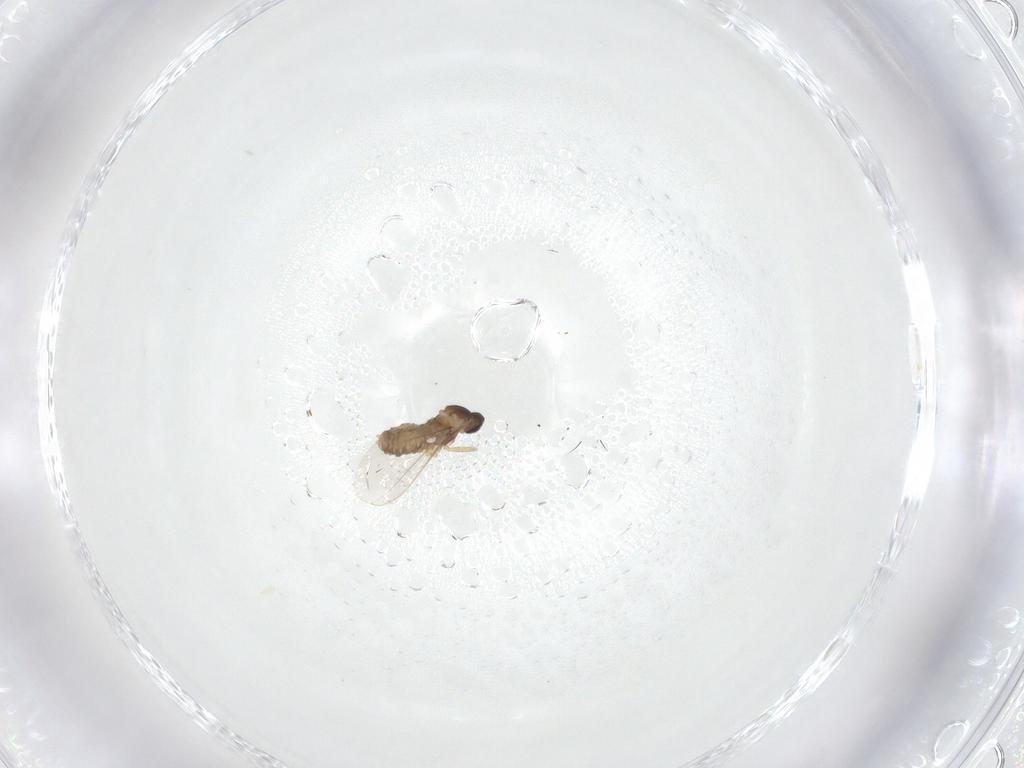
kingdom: Animalia
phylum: Arthropoda
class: Insecta
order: Diptera
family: Cecidomyiidae
